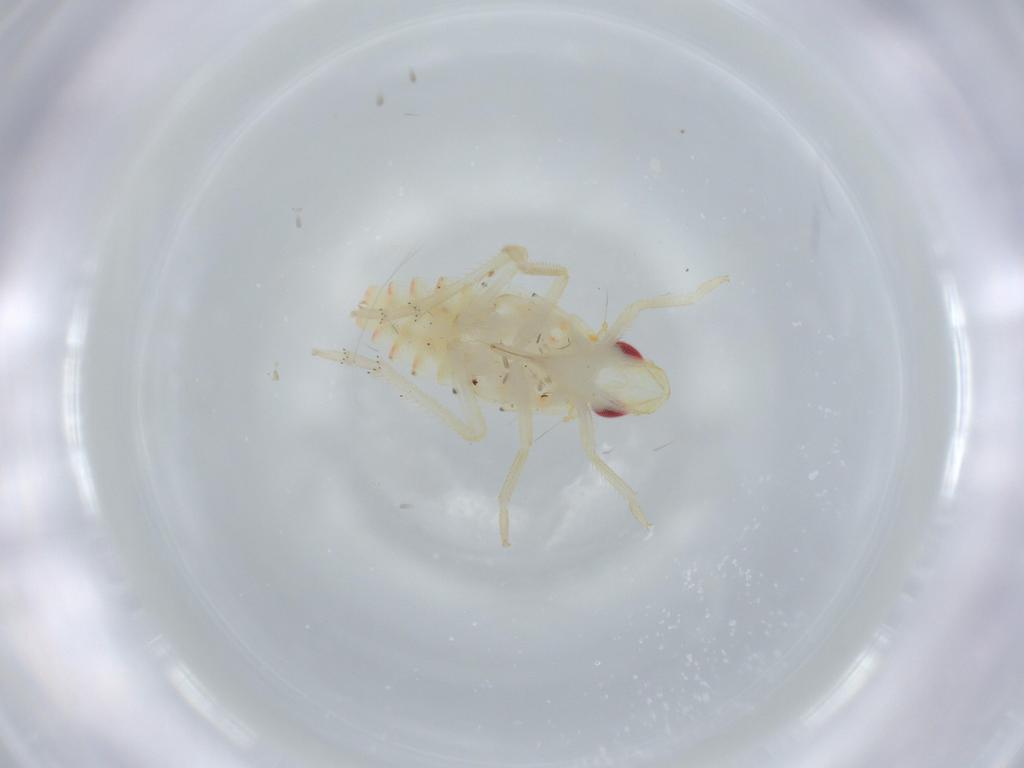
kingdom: Animalia
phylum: Arthropoda
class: Insecta
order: Hemiptera
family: Tropiduchidae
